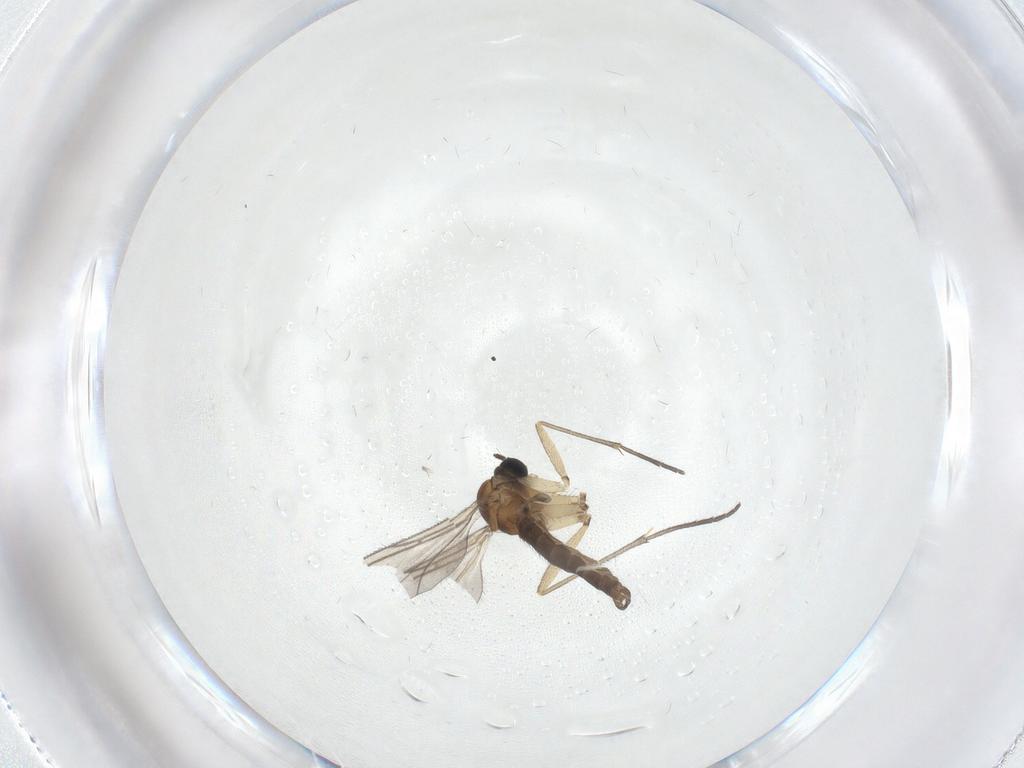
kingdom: Animalia
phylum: Arthropoda
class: Insecta
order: Diptera
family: Sciaridae
